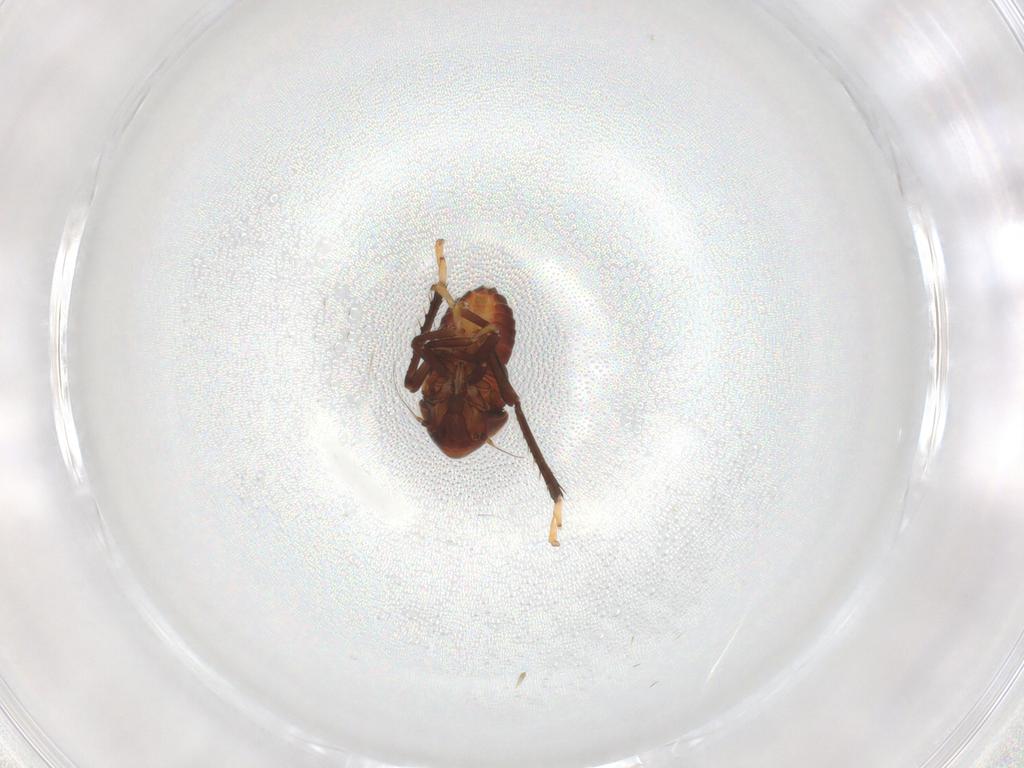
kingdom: Animalia
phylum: Arthropoda
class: Insecta
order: Hemiptera
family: Cicadellidae
